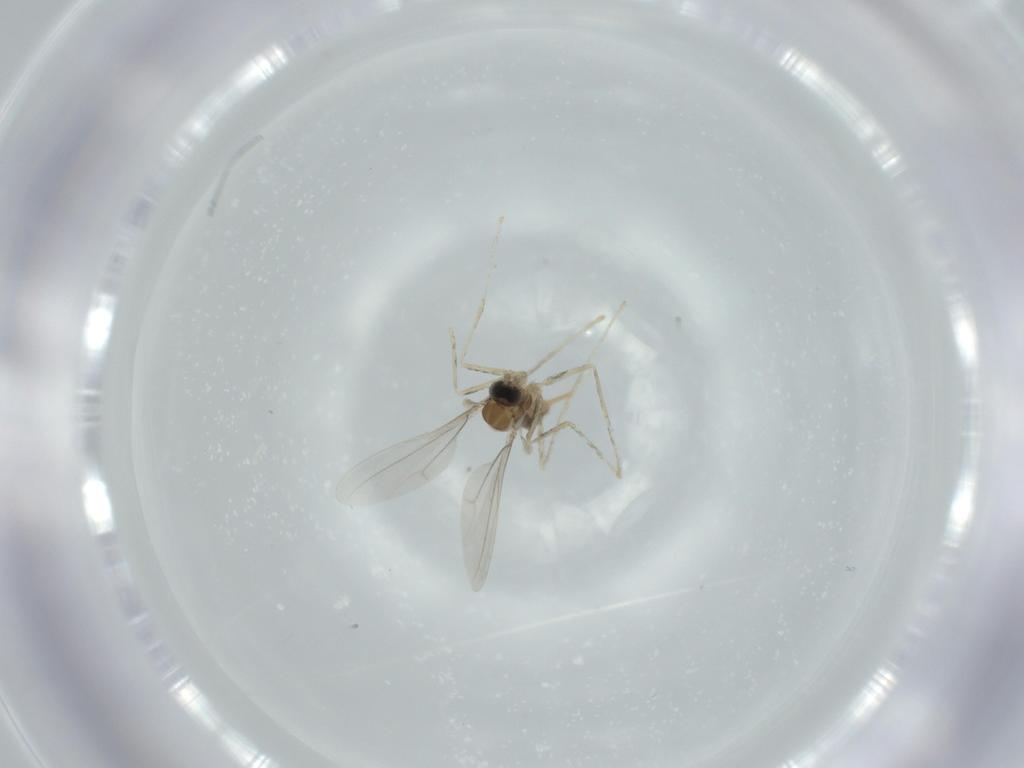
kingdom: Animalia
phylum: Arthropoda
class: Insecta
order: Diptera
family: Cecidomyiidae
